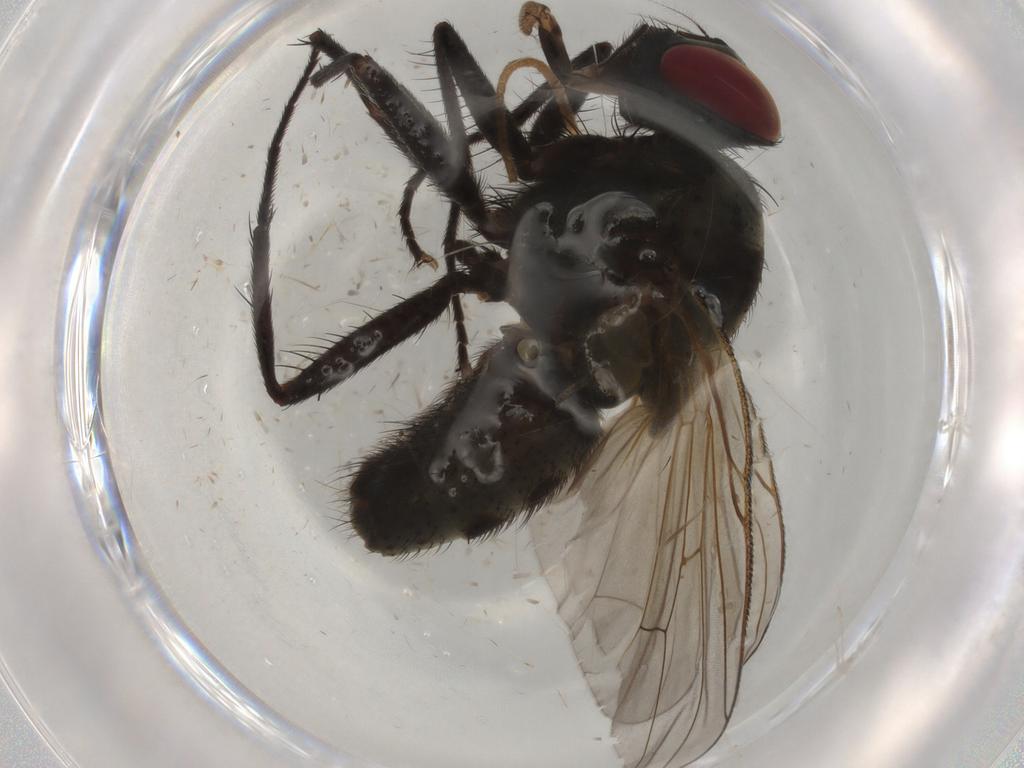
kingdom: Animalia
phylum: Arthropoda
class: Insecta
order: Diptera
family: Muscidae
